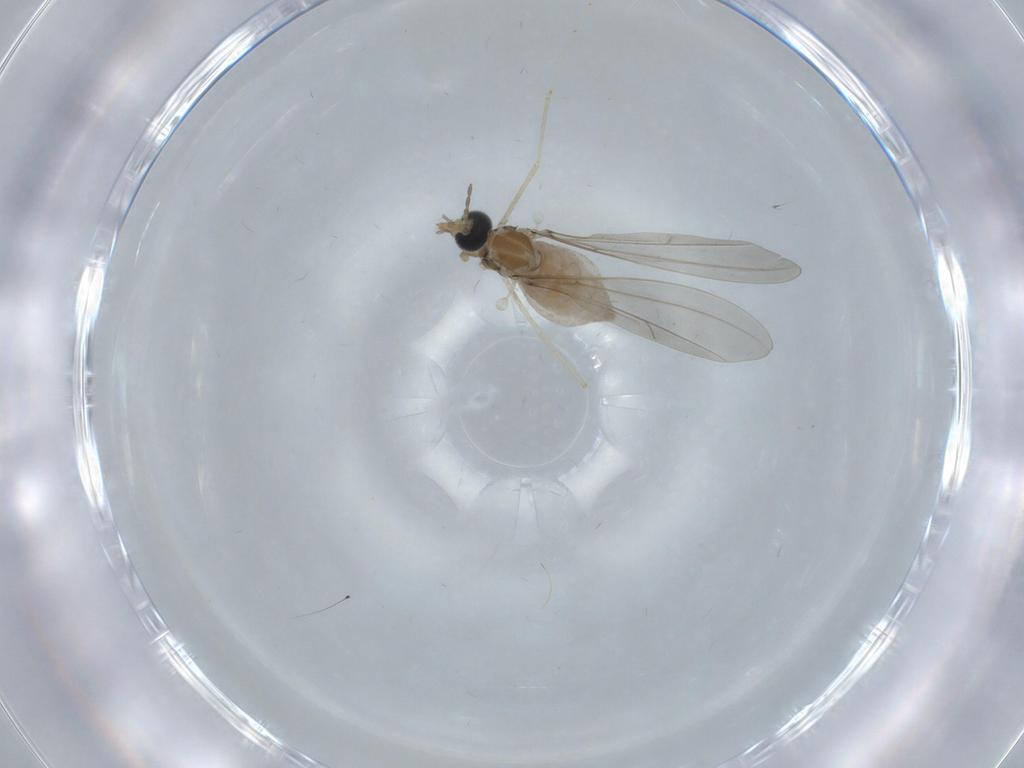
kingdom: Animalia
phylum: Arthropoda
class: Insecta
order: Diptera
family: Cecidomyiidae
